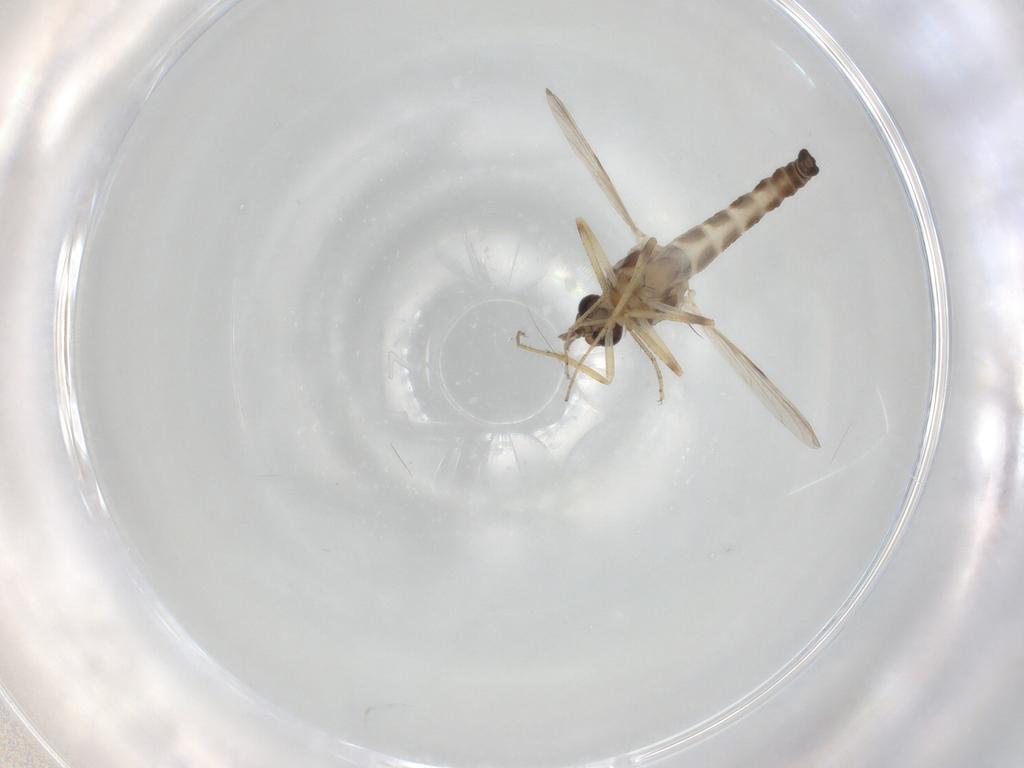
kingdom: Animalia
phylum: Arthropoda
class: Insecta
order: Diptera
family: Ceratopogonidae
